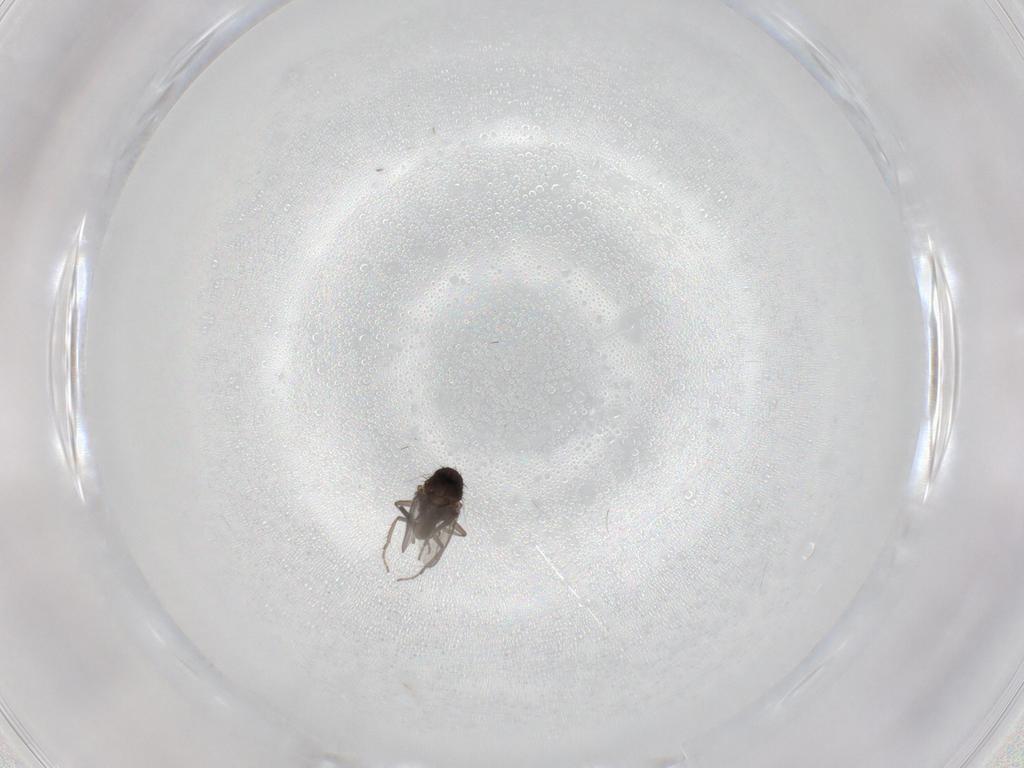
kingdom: Animalia
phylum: Arthropoda
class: Insecta
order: Diptera
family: Sphaeroceridae
